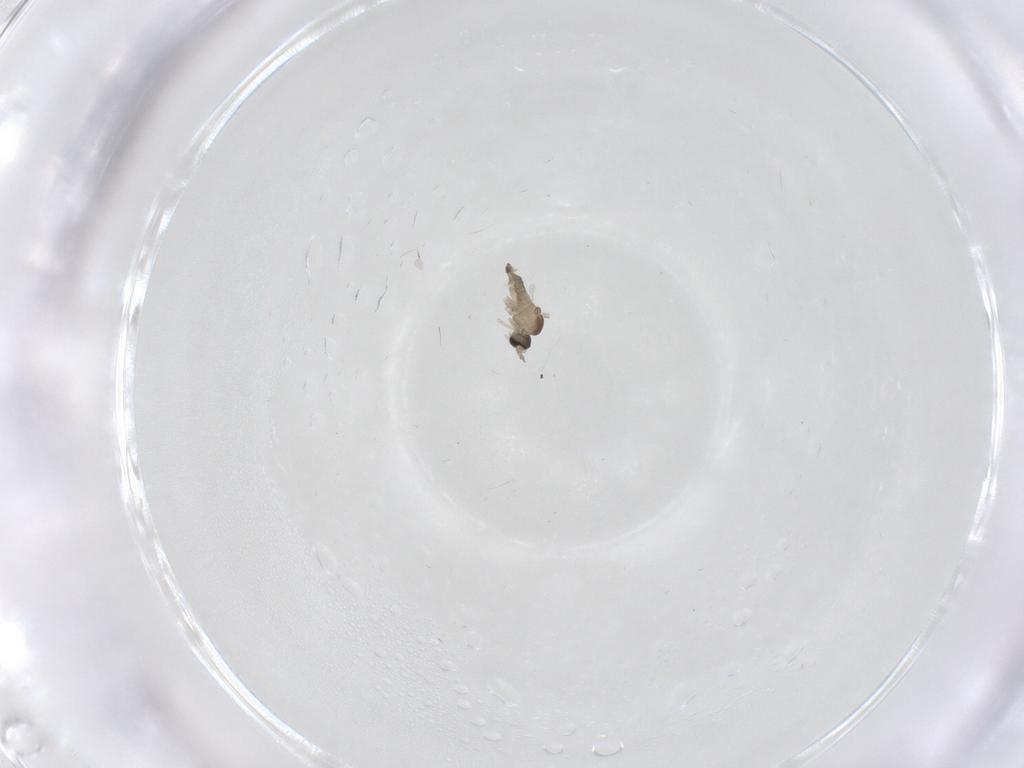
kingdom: Animalia
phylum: Arthropoda
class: Insecta
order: Diptera
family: Cecidomyiidae
